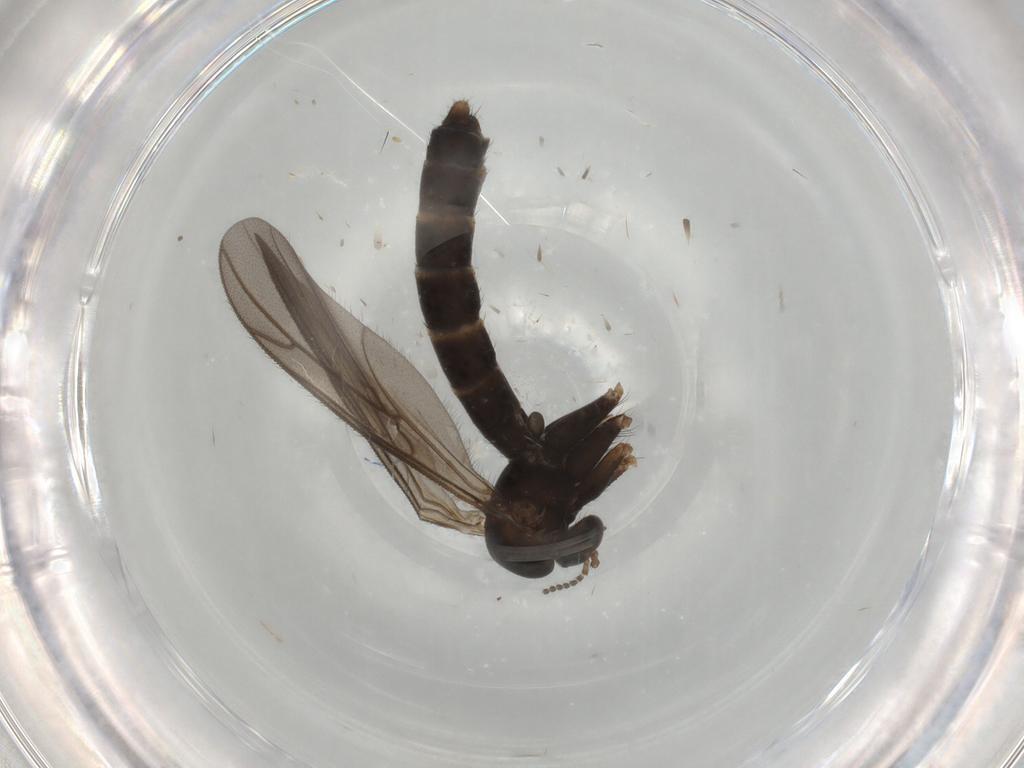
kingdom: Animalia
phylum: Arthropoda
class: Insecta
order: Diptera
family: Ditomyiidae
